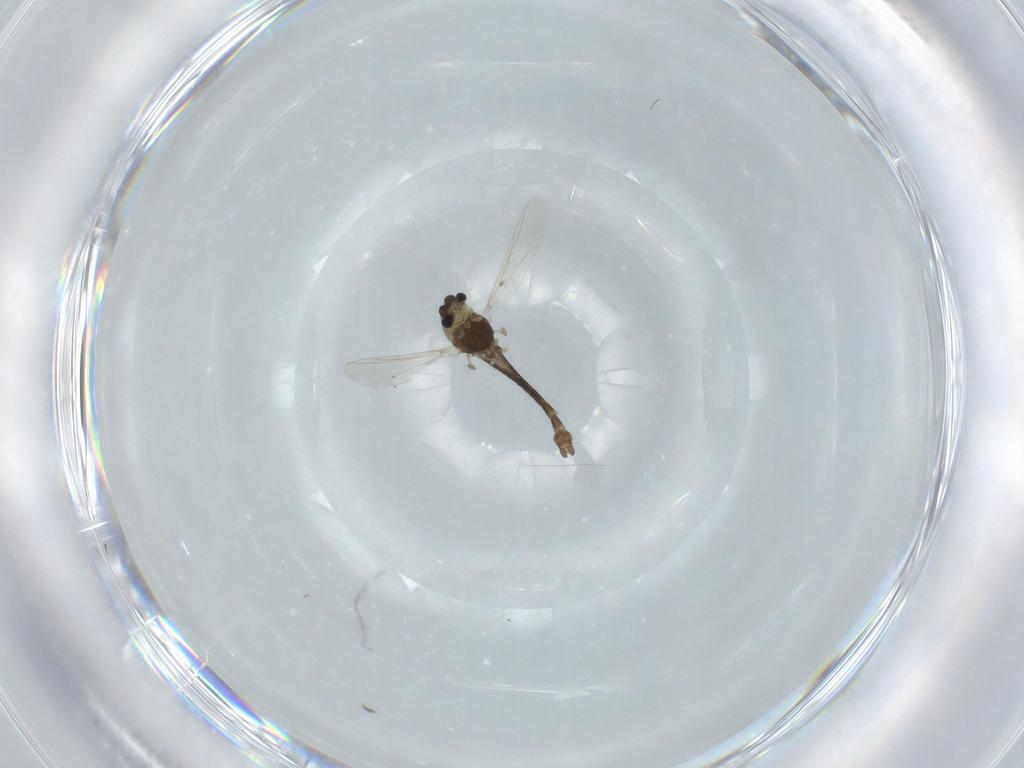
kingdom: Animalia
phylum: Arthropoda
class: Insecta
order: Diptera
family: Chironomidae
